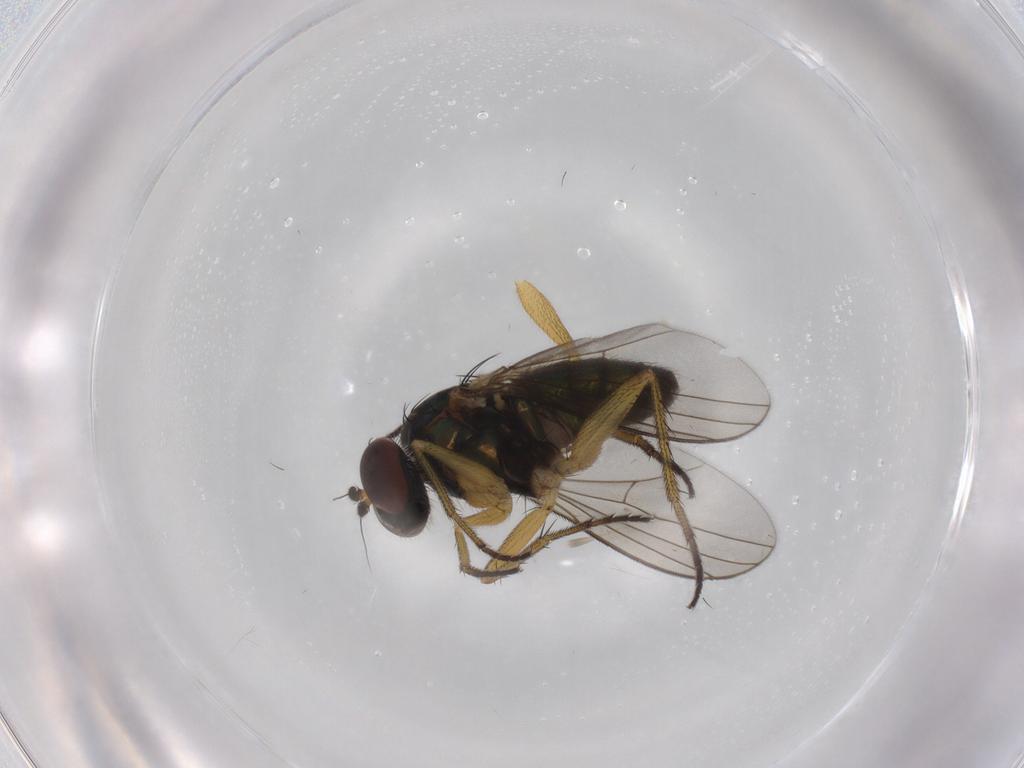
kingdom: Animalia
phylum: Arthropoda
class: Insecta
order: Diptera
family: Dolichopodidae
